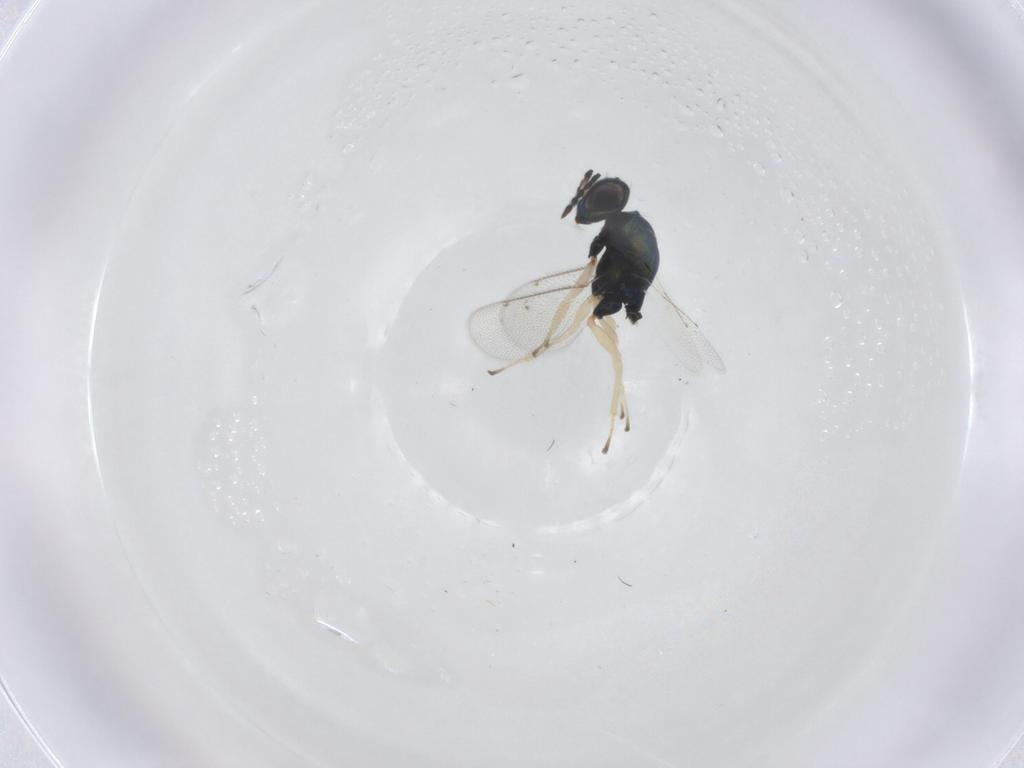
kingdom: Animalia
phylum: Arthropoda
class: Insecta
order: Hymenoptera
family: Eulophidae
